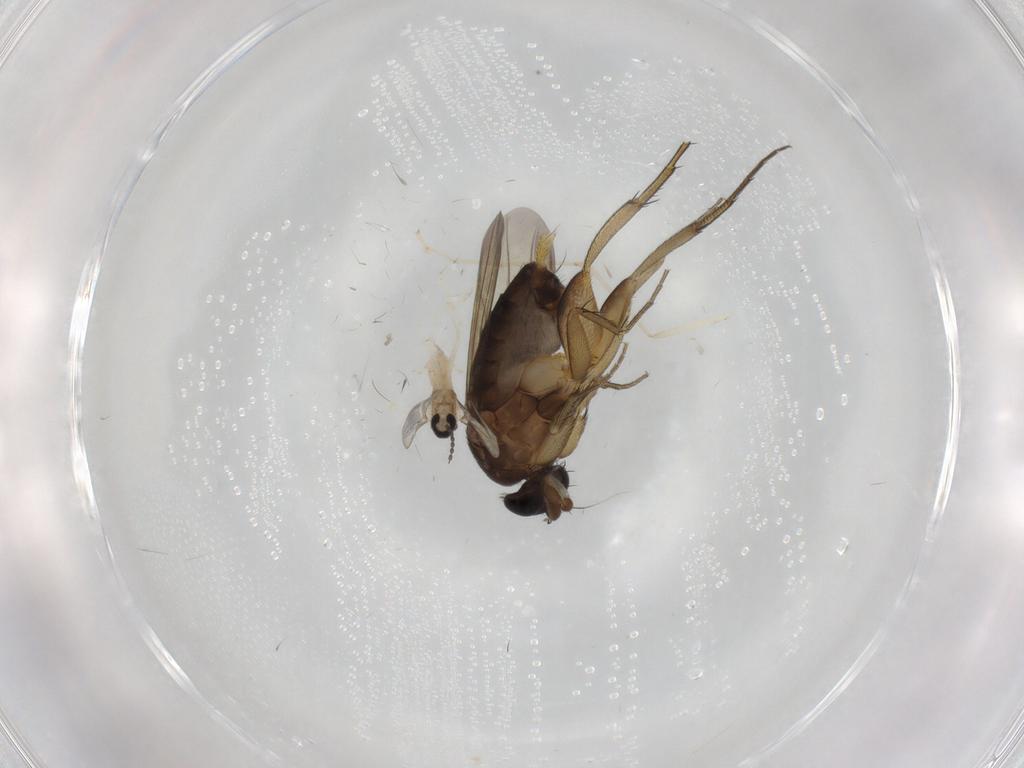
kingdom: Animalia
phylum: Arthropoda
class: Insecta
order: Diptera
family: Cecidomyiidae
